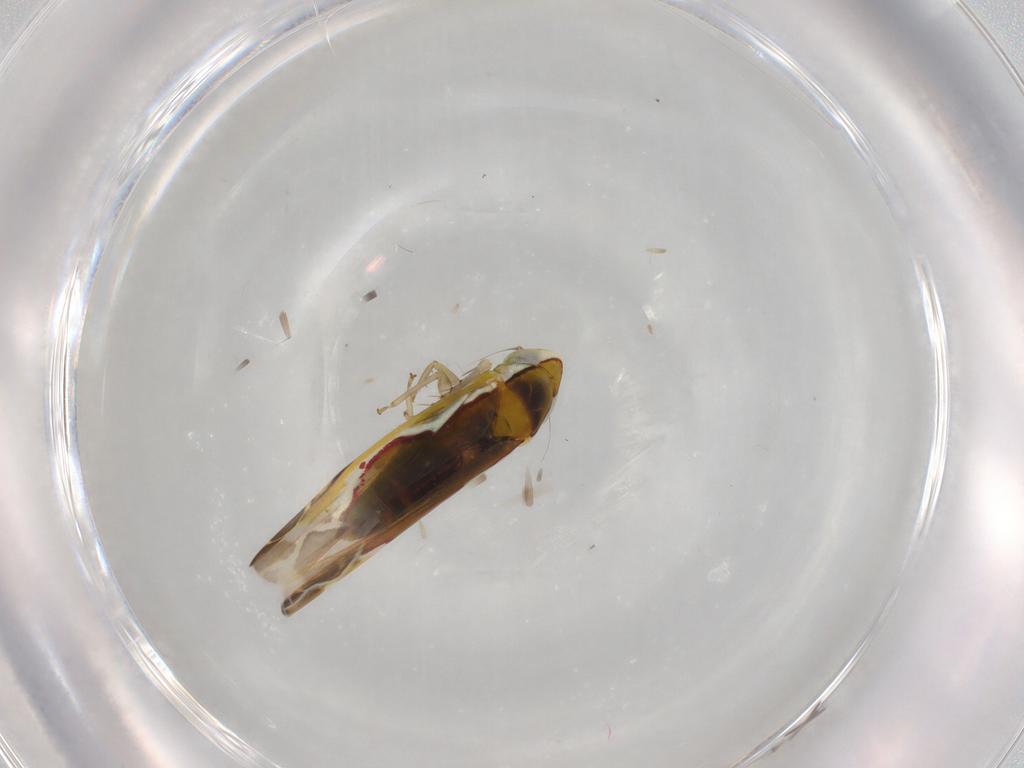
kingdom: Animalia
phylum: Arthropoda
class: Insecta
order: Hemiptera
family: Cicadellidae
